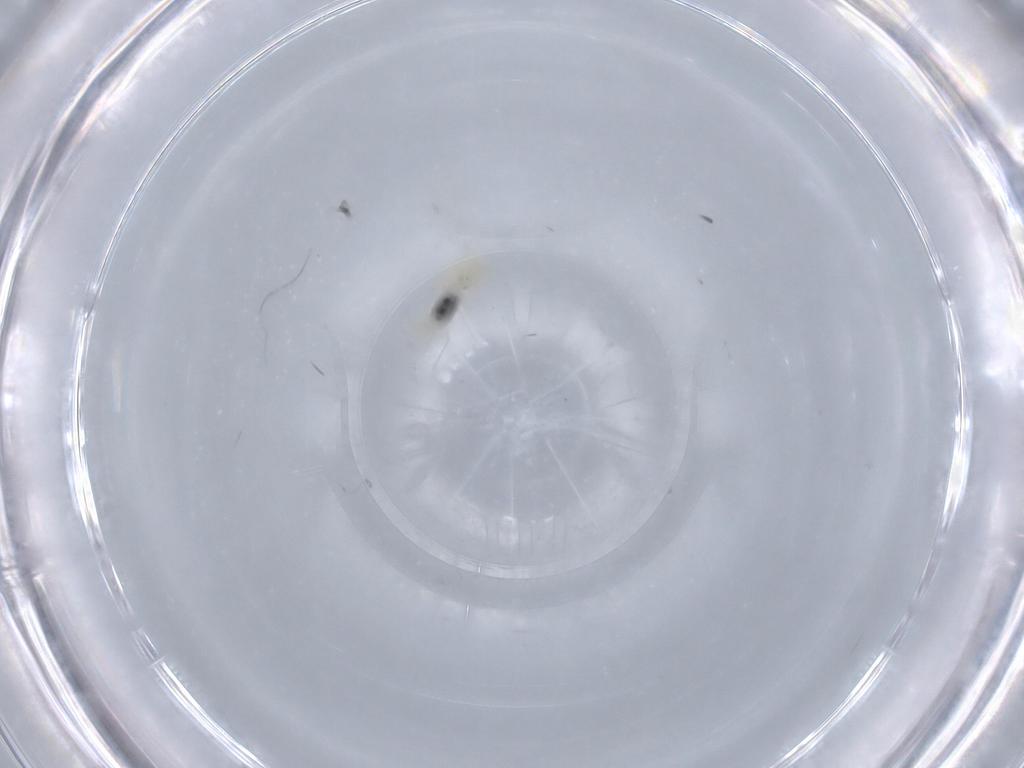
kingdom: Animalia
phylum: Arthropoda
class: Insecta
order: Diptera
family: Cecidomyiidae
